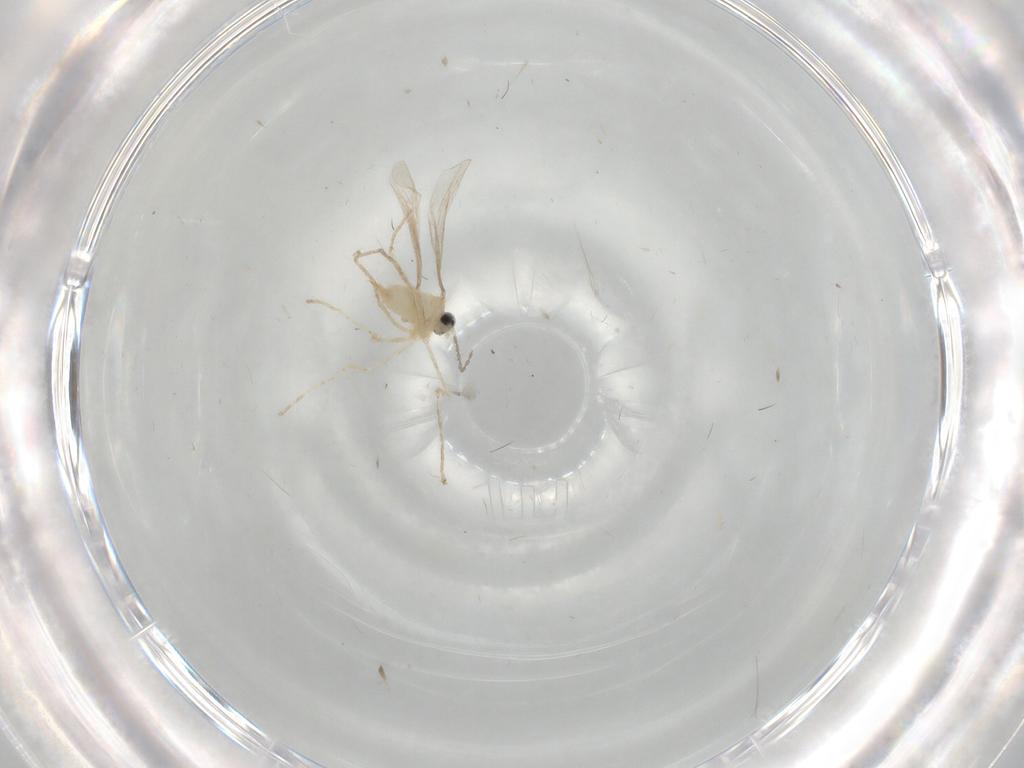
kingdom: Animalia
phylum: Arthropoda
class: Insecta
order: Diptera
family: Cecidomyiidae
